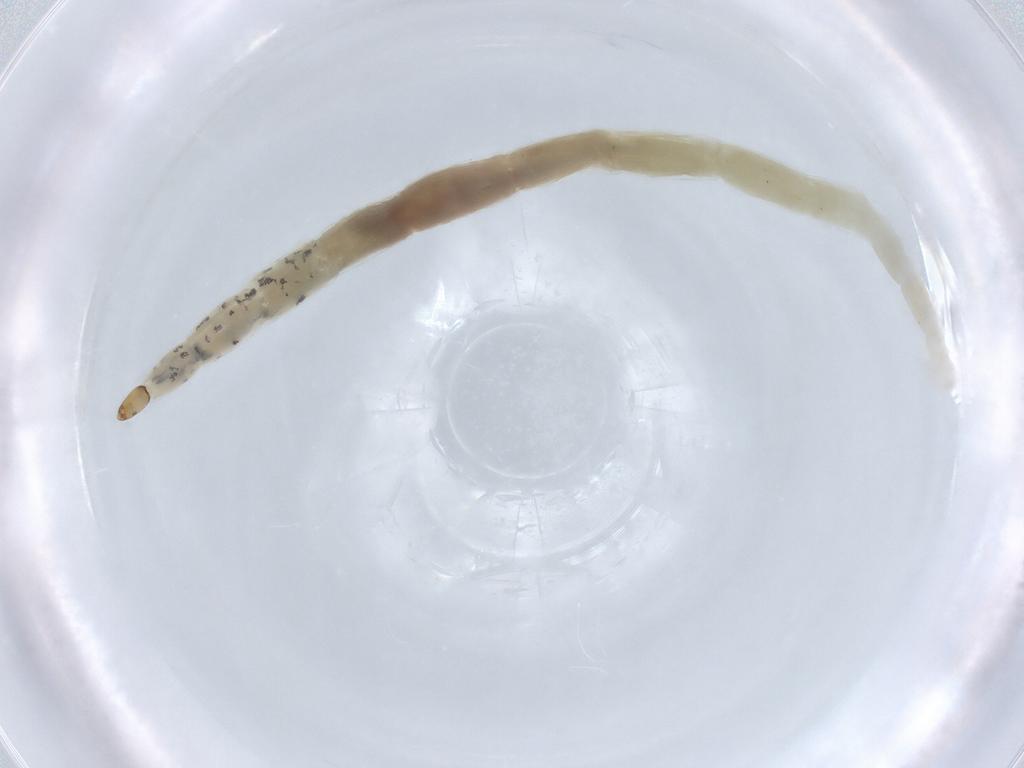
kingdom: Animalia
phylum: Arthropoda
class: Insecta
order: Diptera
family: Ceratopogonidae
